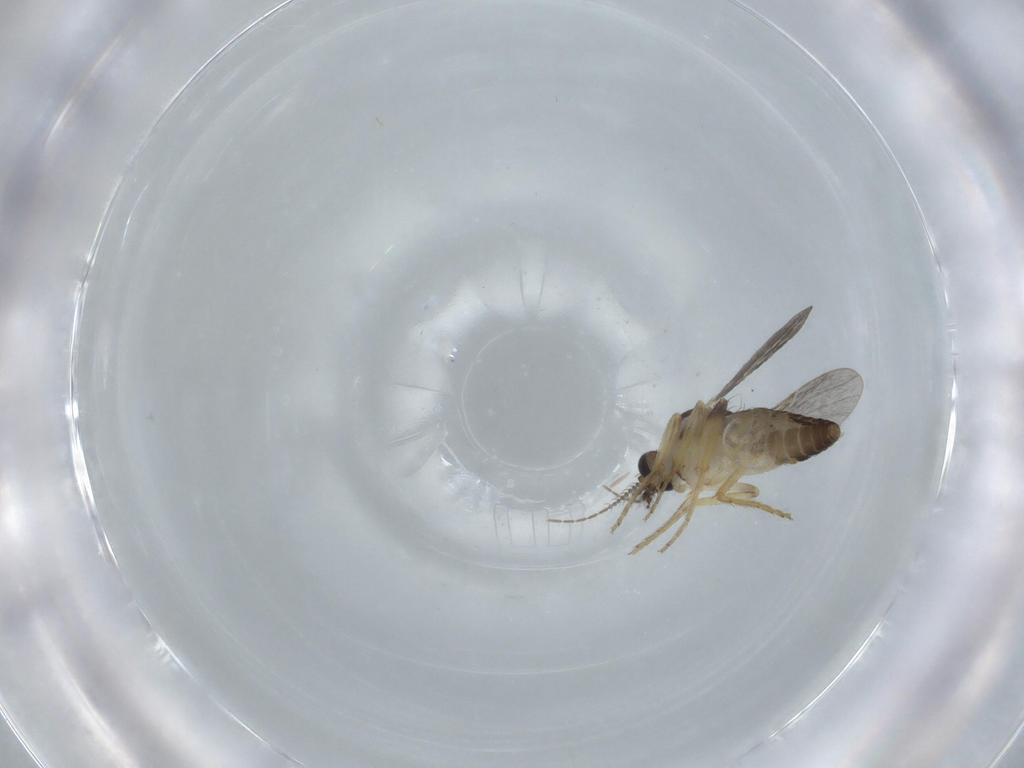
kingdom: Animalia
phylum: Arthropoda
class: Insecta
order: Diptera
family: Ceratopogonidae
